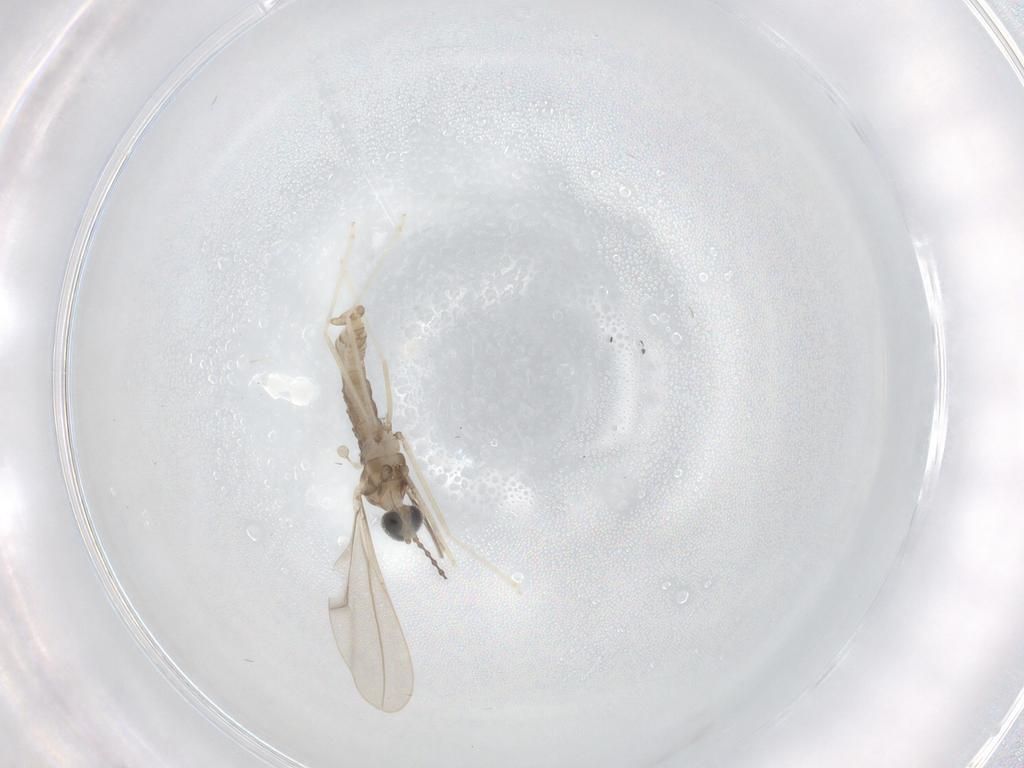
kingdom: Animalia
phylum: Arthropoda
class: Insecta
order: Diptera
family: Cecidomyiidae
